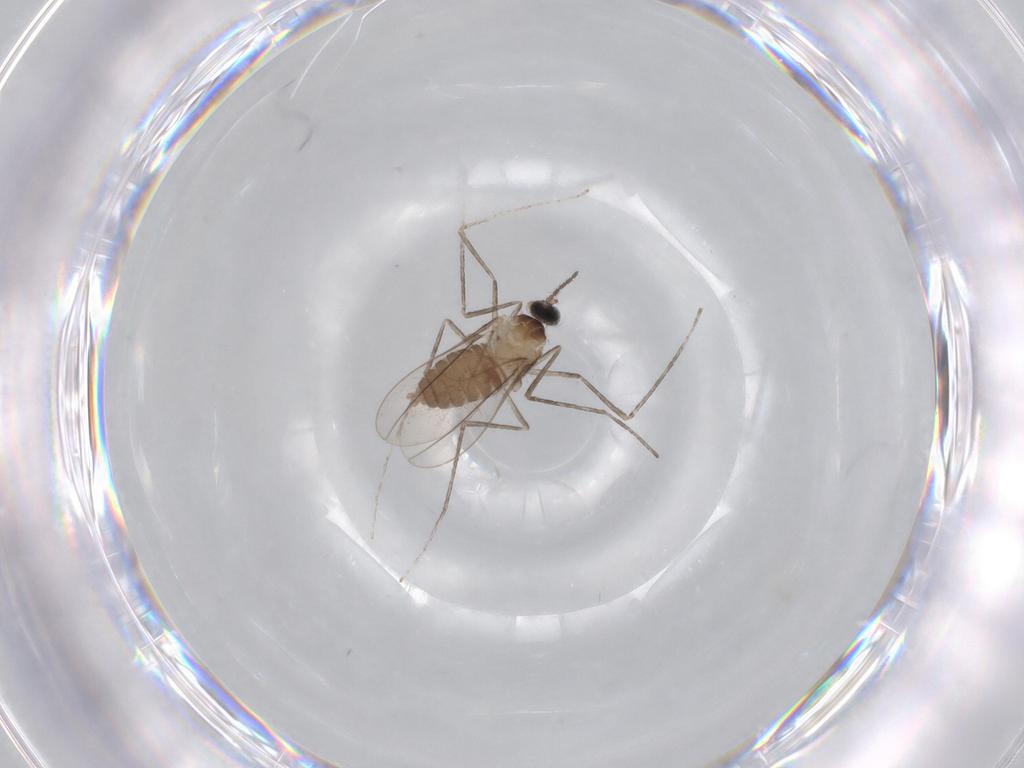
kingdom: Animalia
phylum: Arthropoda
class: Insecta
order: Diptera
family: Cecidomyiidae
